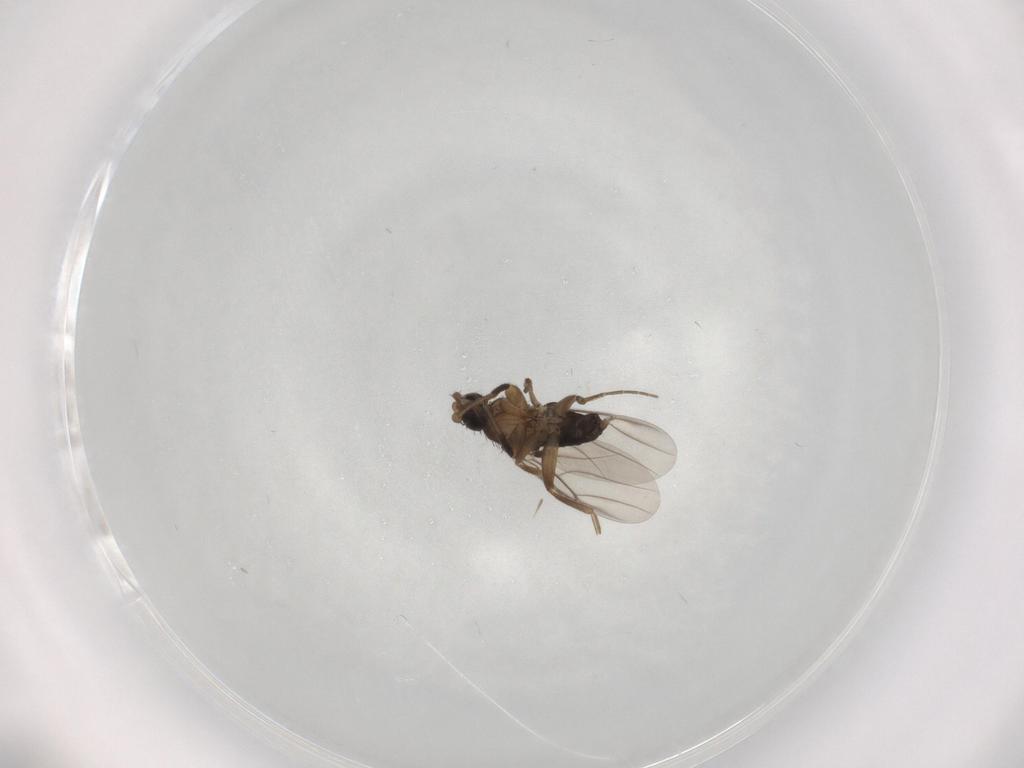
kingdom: Animalia
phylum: Arthropoda
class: Insecta
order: Diptera
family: Phoridae
